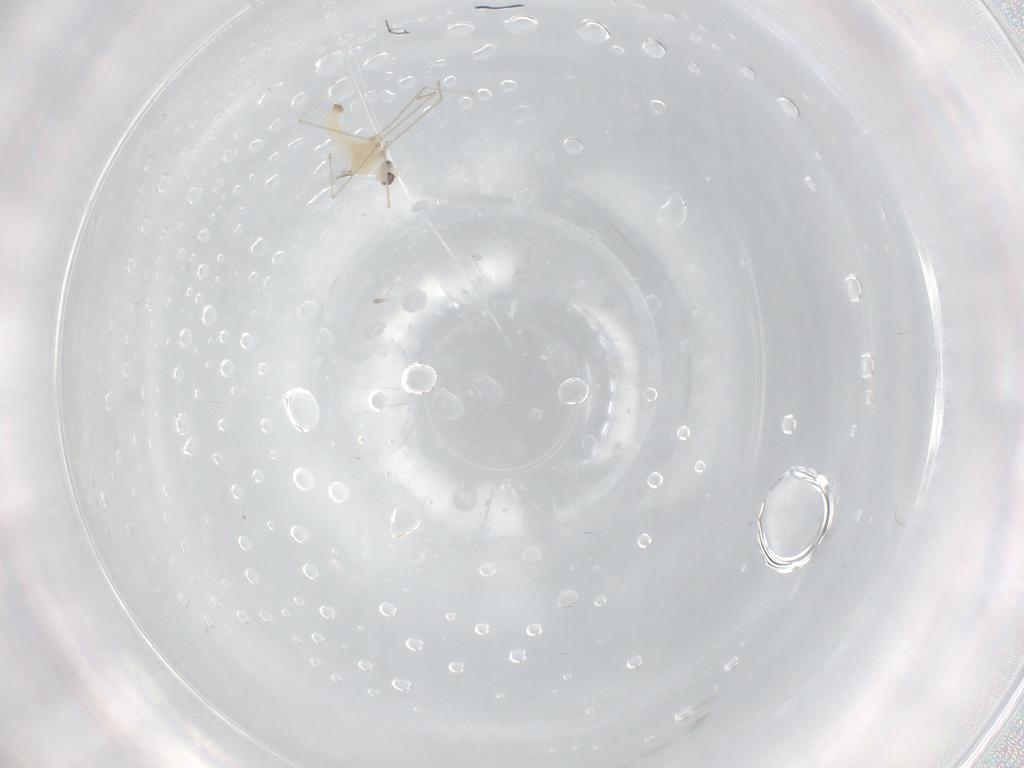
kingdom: Animalia
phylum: Arthropoda
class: Insecta
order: Diptera
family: Cecidomyiidae
